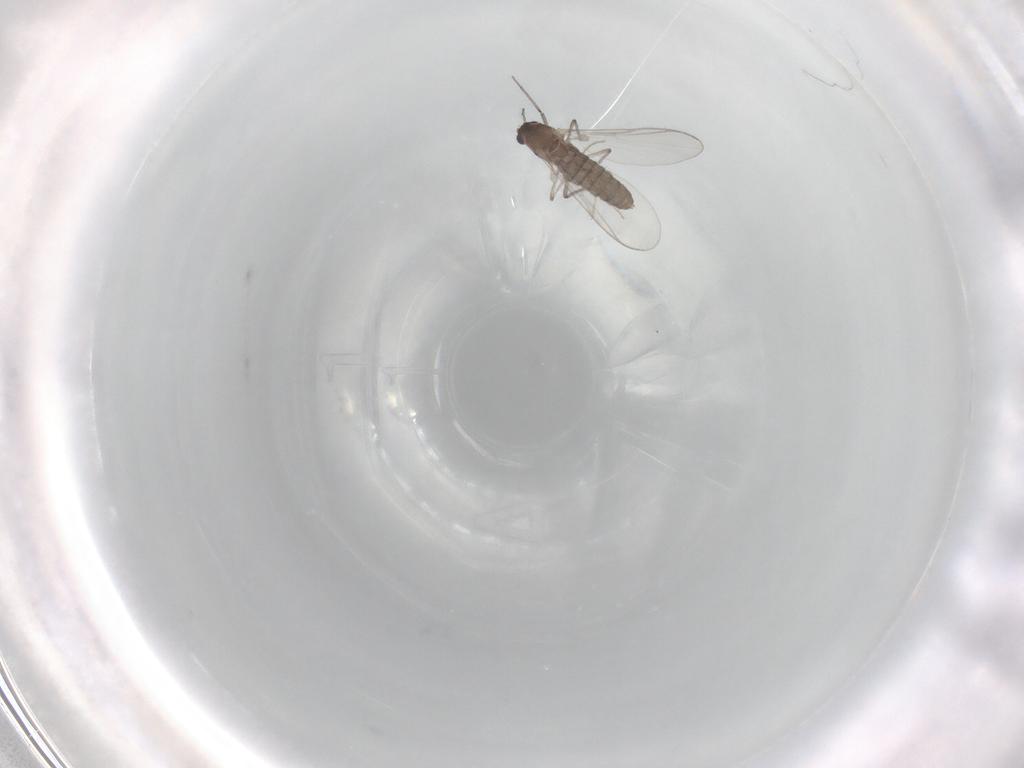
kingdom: Animalia
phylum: Arthropoda
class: Insecta
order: Diptera
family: Chironomidae
